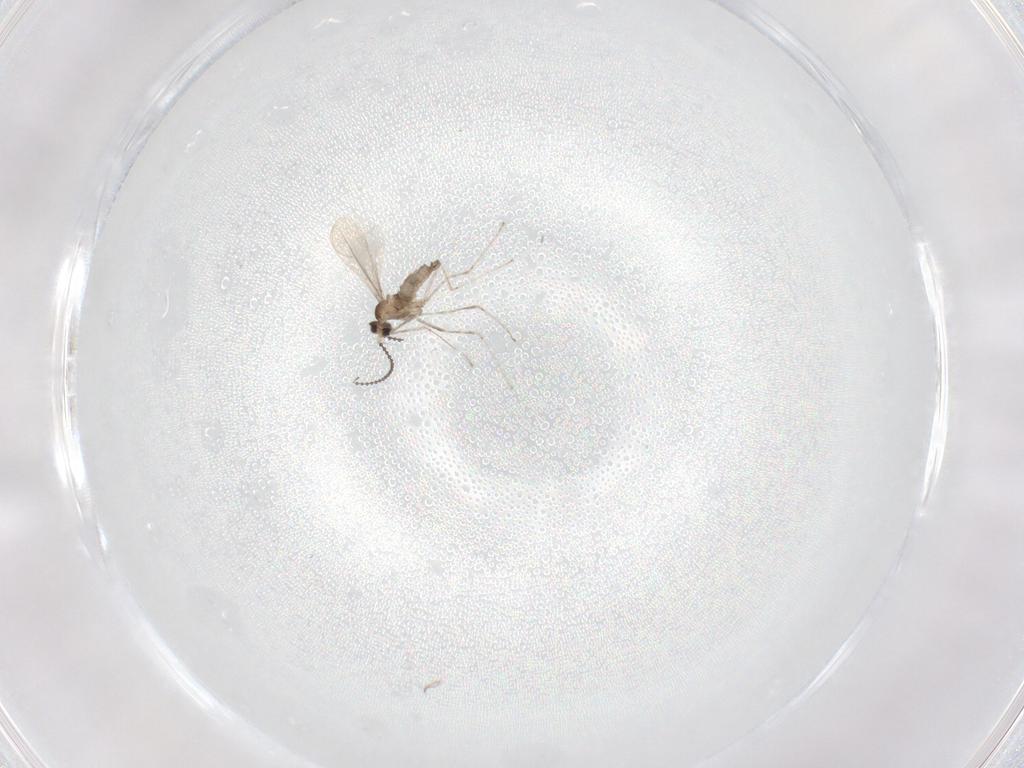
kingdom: Animalia
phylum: Arthropoda
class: Insecta
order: Diptera
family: Cecidomyiidae
